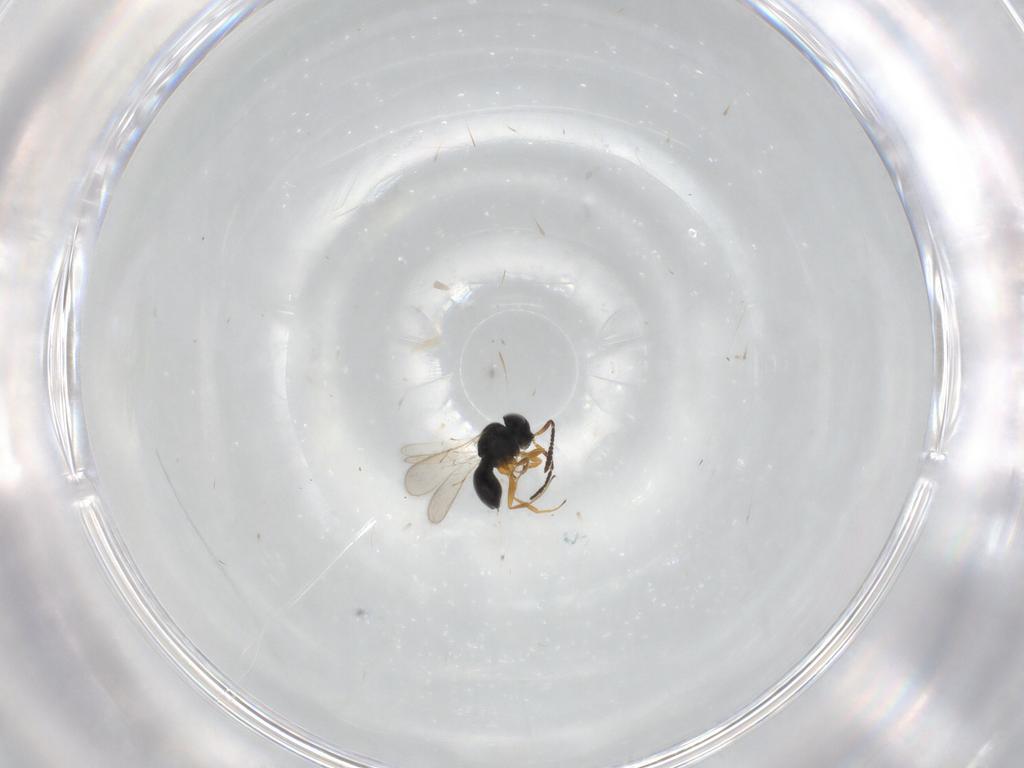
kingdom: Animalia
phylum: Arthropoda
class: Insecta
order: Hymenoptera
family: Scelionidae
